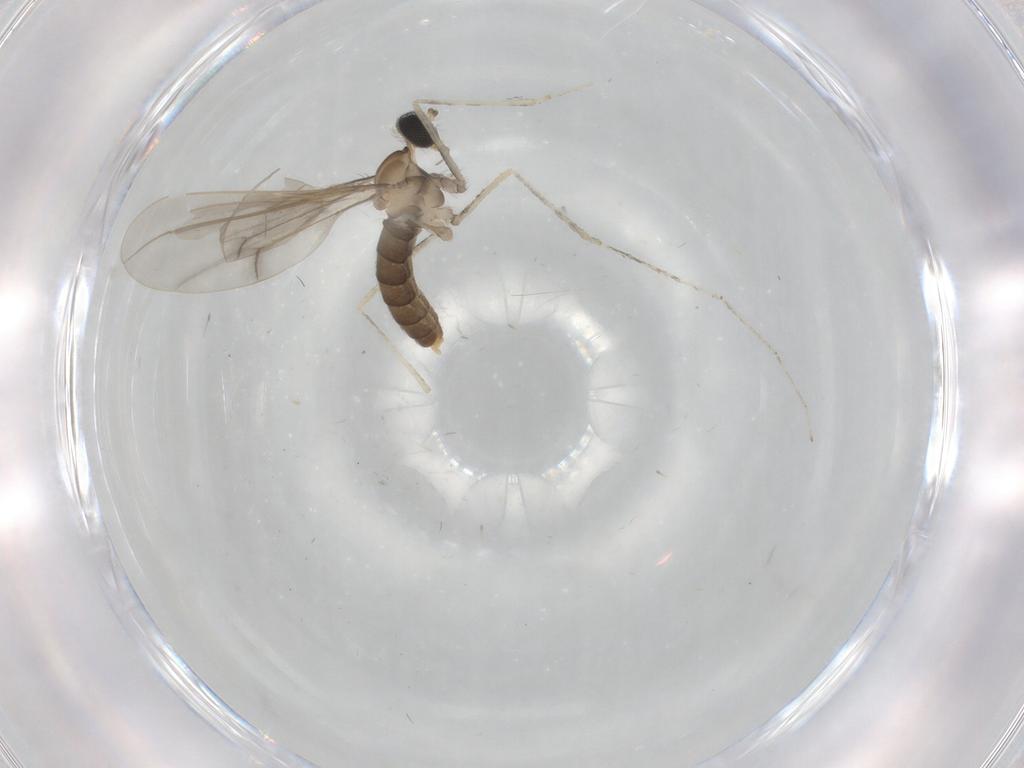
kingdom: Animalia
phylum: Arthropoda
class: Insecta
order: Diptera
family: Cecidomyiidae
